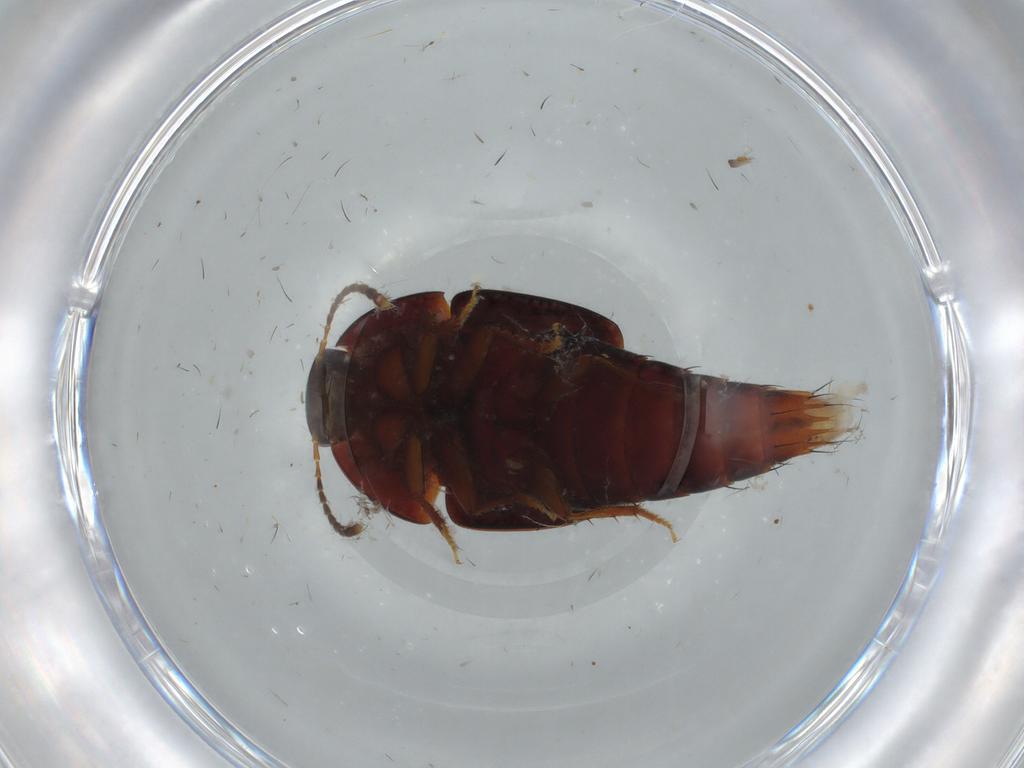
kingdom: Animalia
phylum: Arthropoda
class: Insecta
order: Coleoptera
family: Staphylinidae
